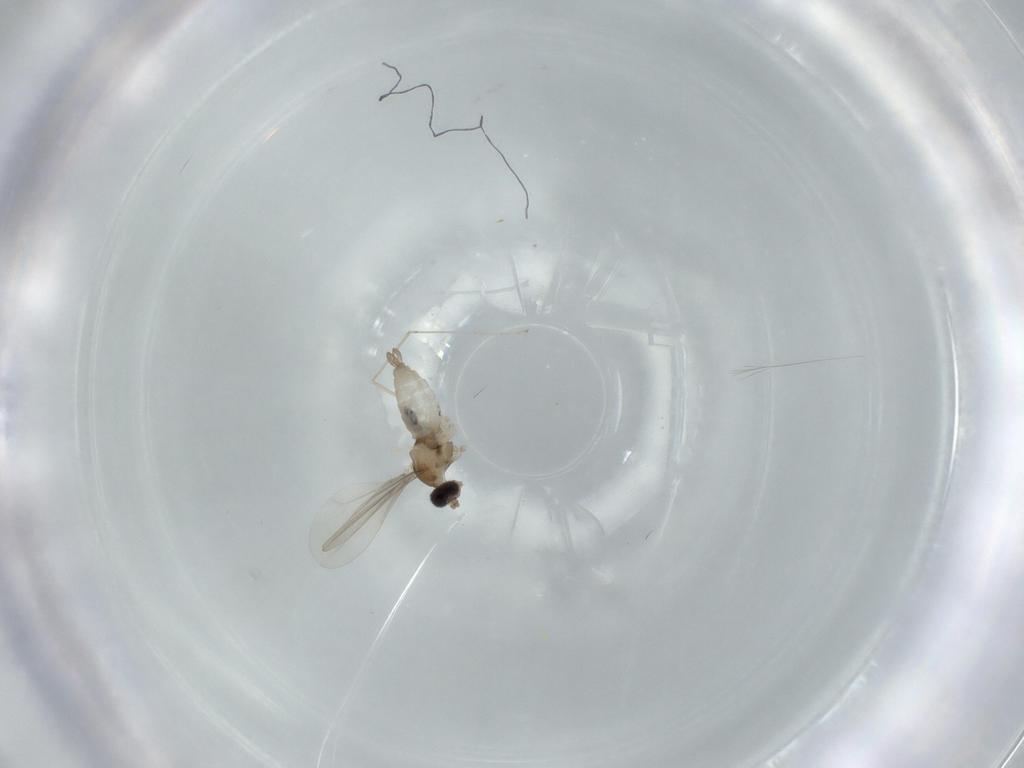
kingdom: Animalia
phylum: Arthropoda
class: Insecta
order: Diptera
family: Cecidomyiidae
